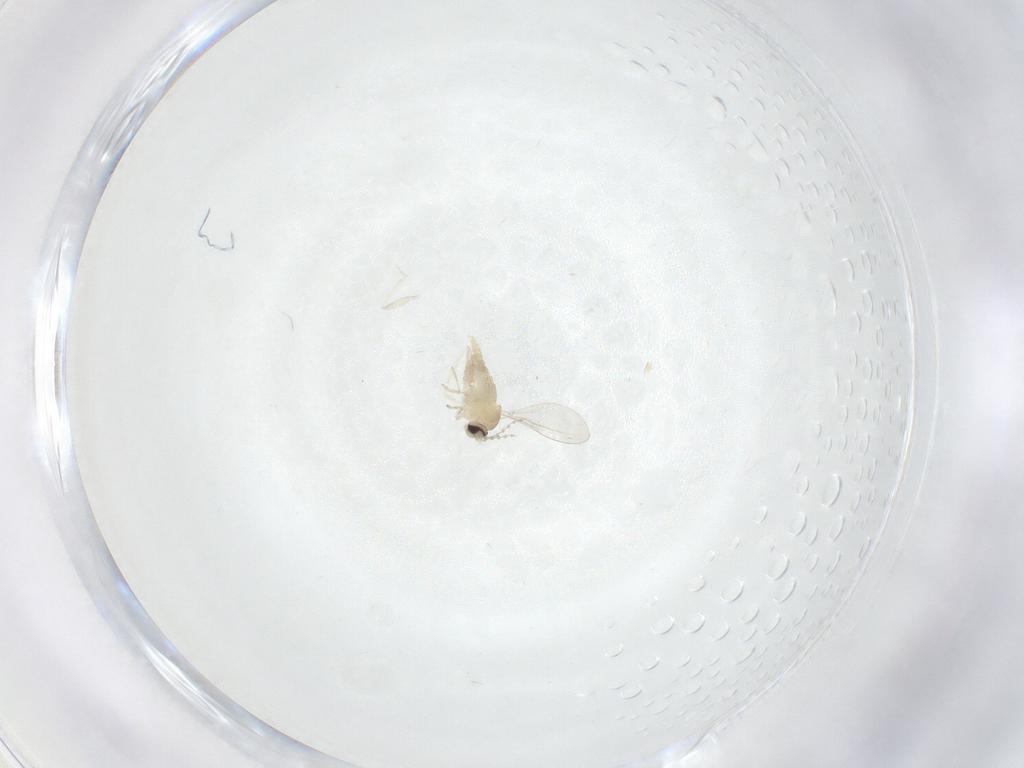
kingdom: Animalia
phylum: Arthropoda
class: Insecta
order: Diptera
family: Cecidomyiidae
